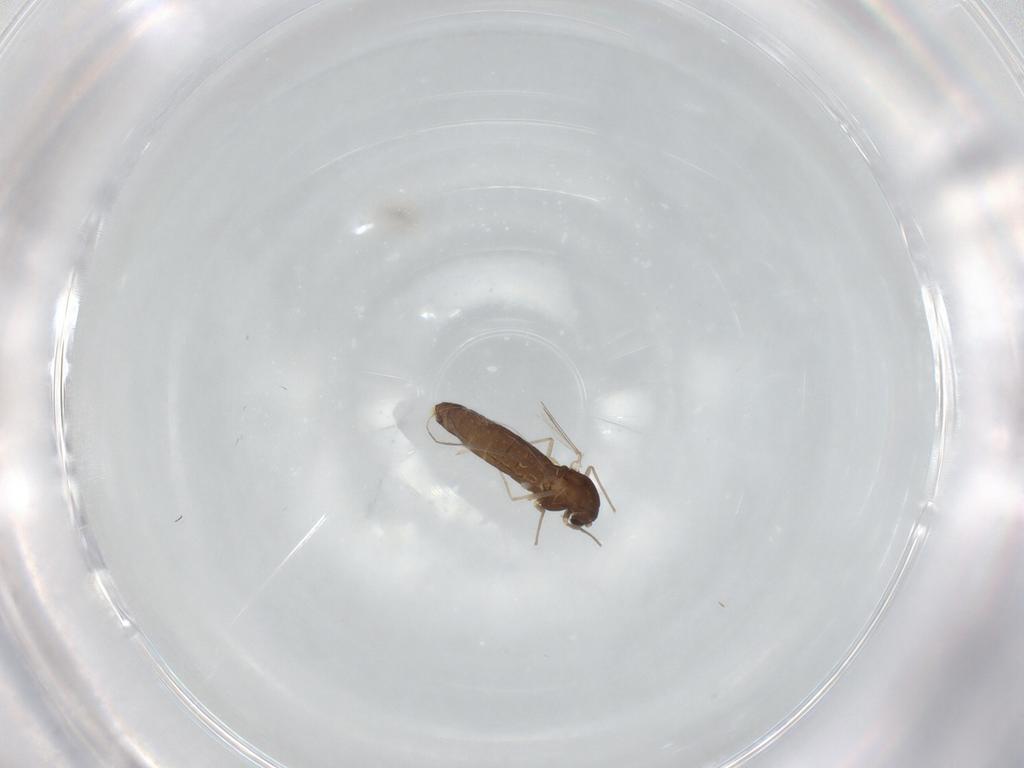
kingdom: Animalia
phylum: Arthropoda
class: Insecta
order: Diptera
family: Chironomidae
